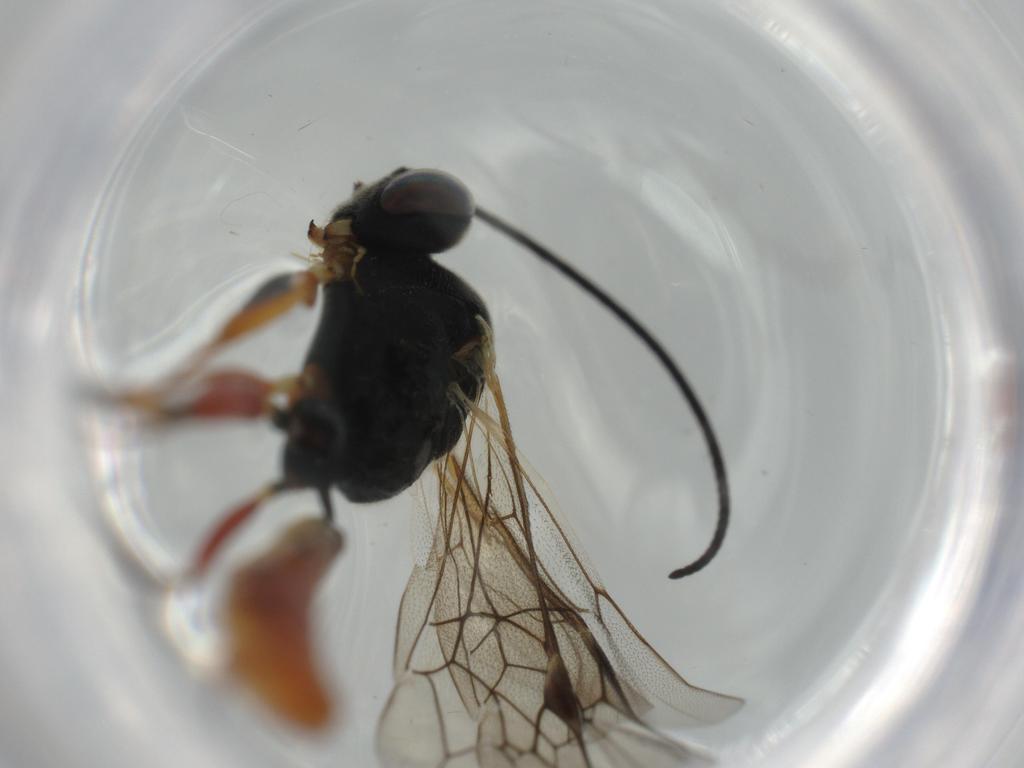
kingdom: Animalia
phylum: Arthropoda
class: Insecta
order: Hymenoptera
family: Ichneumonidae
